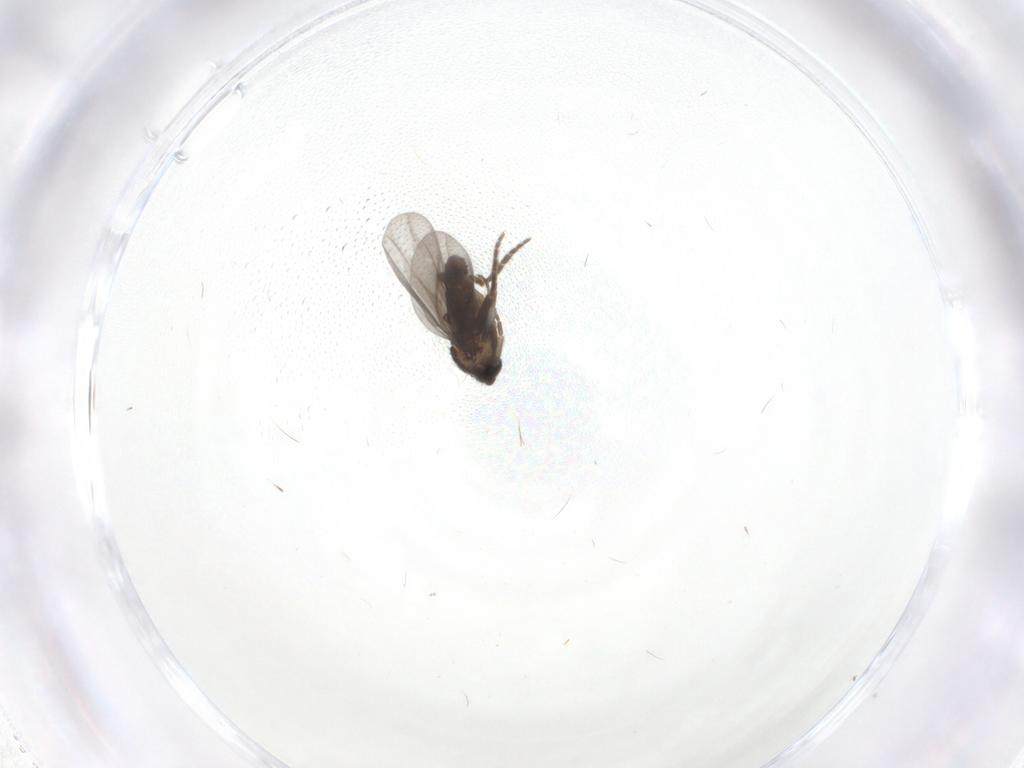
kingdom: Animalia
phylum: Arthropoda
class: Insecta
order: Diptera
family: Phoridae
